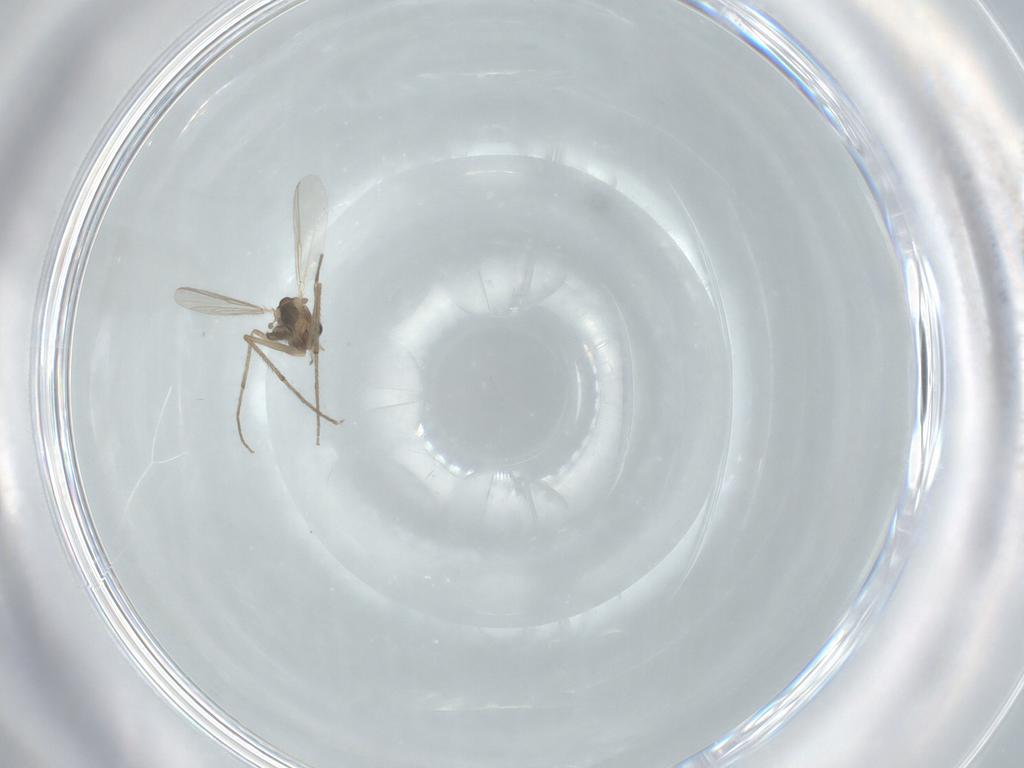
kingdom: Animalia
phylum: Arthropoda
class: Insecta
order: Diptera
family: Chironomidae
